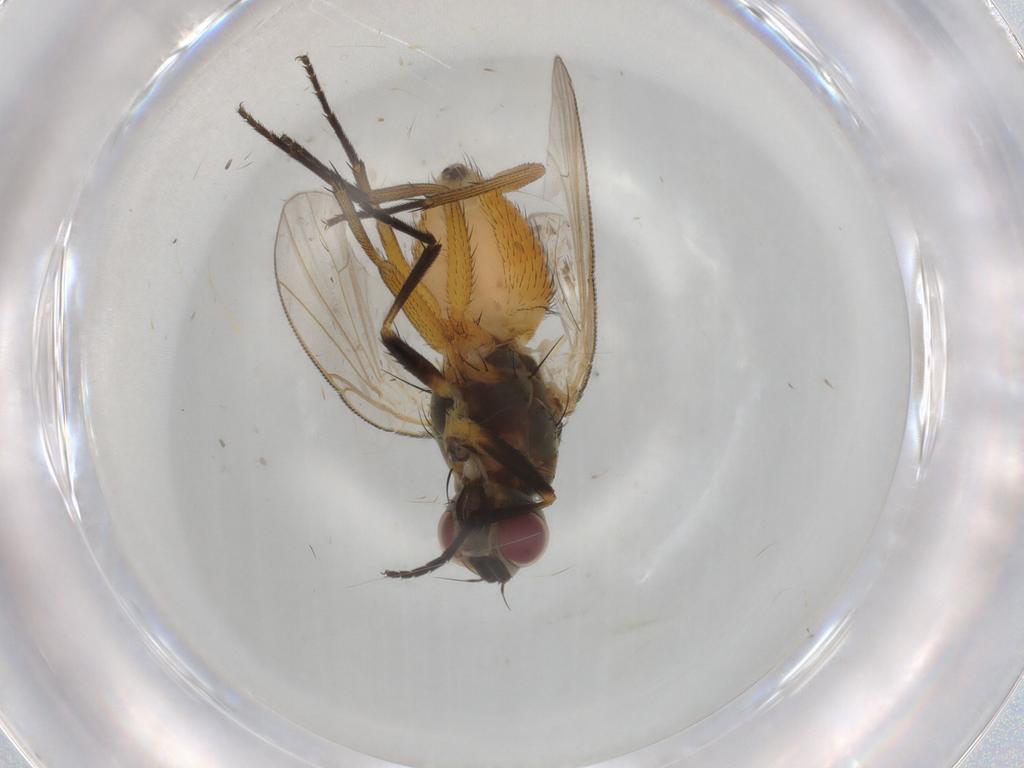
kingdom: Animalia
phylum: Arthropoda
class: Insecta
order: Diptera
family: Muscidae
